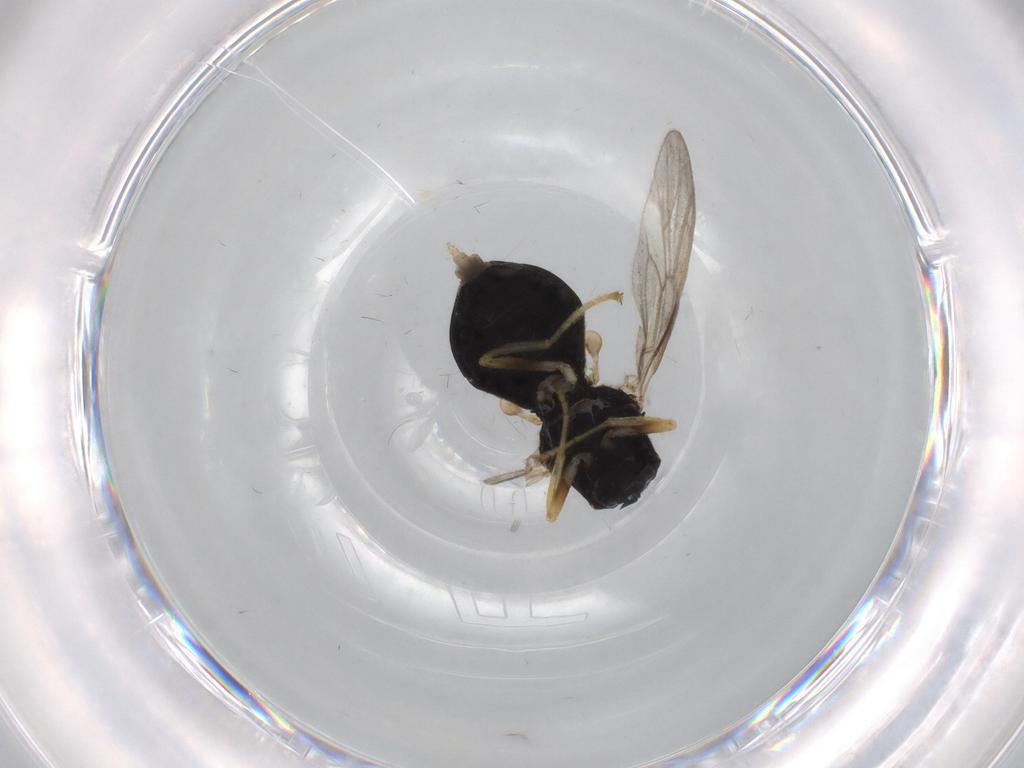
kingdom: Animalia
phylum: Arthropoda
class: Insecta
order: Diptera
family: Stratiomyidae
